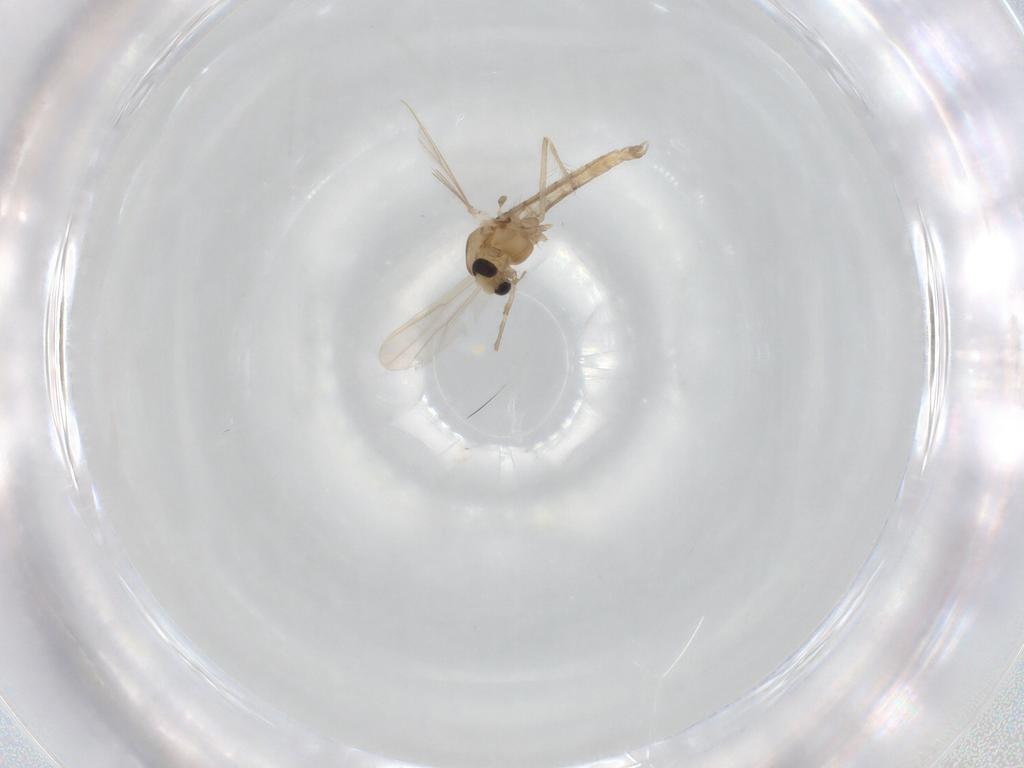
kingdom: Animalia
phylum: Arthropoda
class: Insecta
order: Diptera
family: Chironomidae
